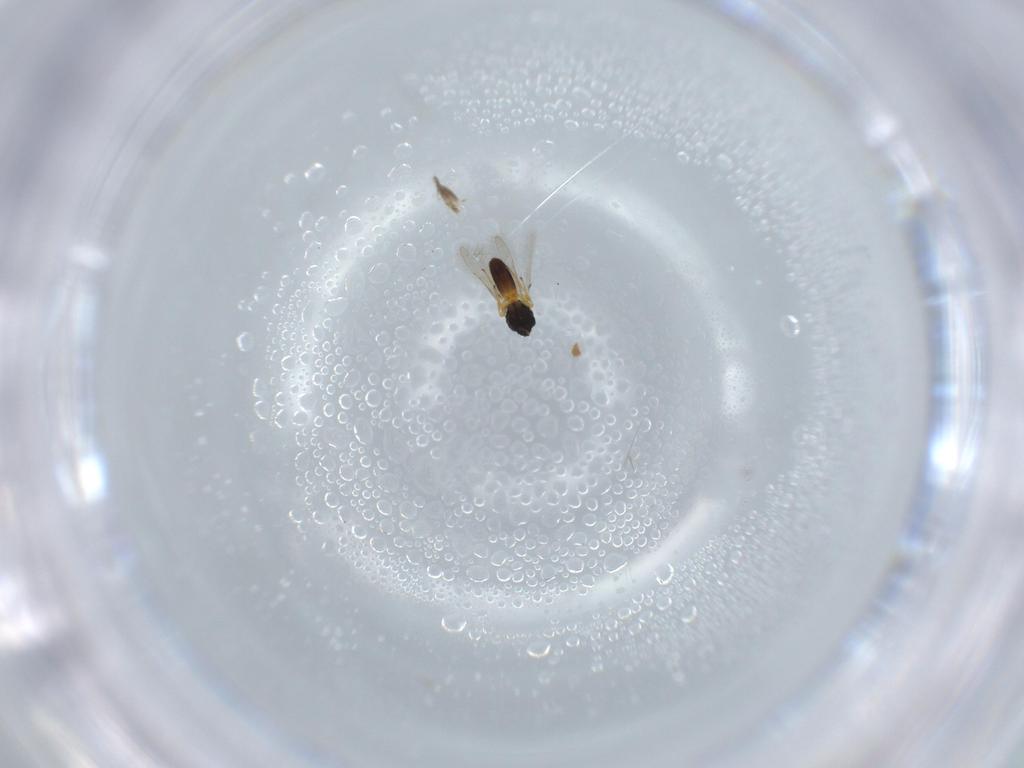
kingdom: Animalia
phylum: Arthropoda
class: Insecta
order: Hymenoptera
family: Scelionidae
